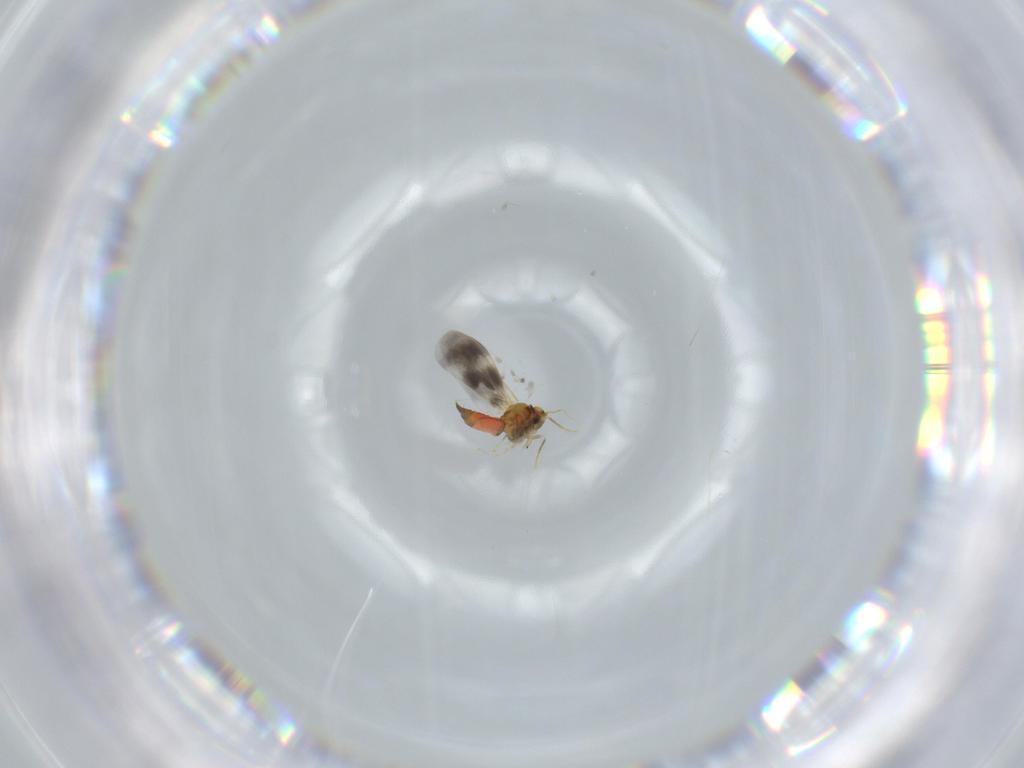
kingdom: Animalia
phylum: Arthropoda
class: Insecta
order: Hemiptera
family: Aleyrodidae
